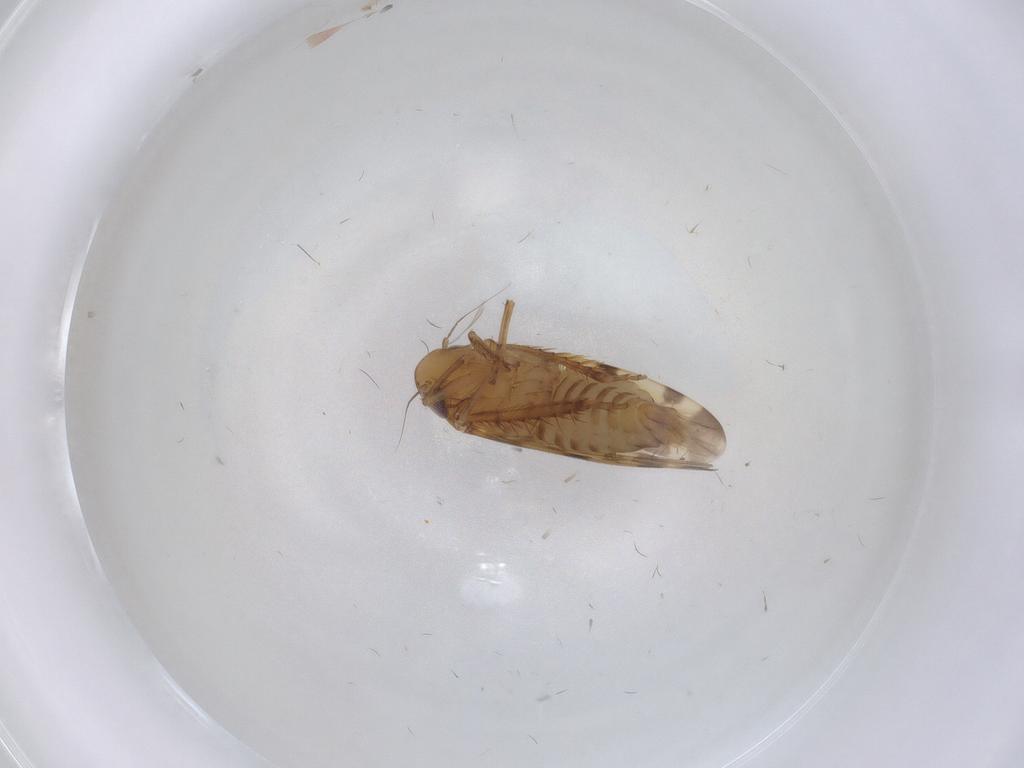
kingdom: Animalia
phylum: Arthropoda
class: Insecta
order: Hemiptera
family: Cicadellidae
